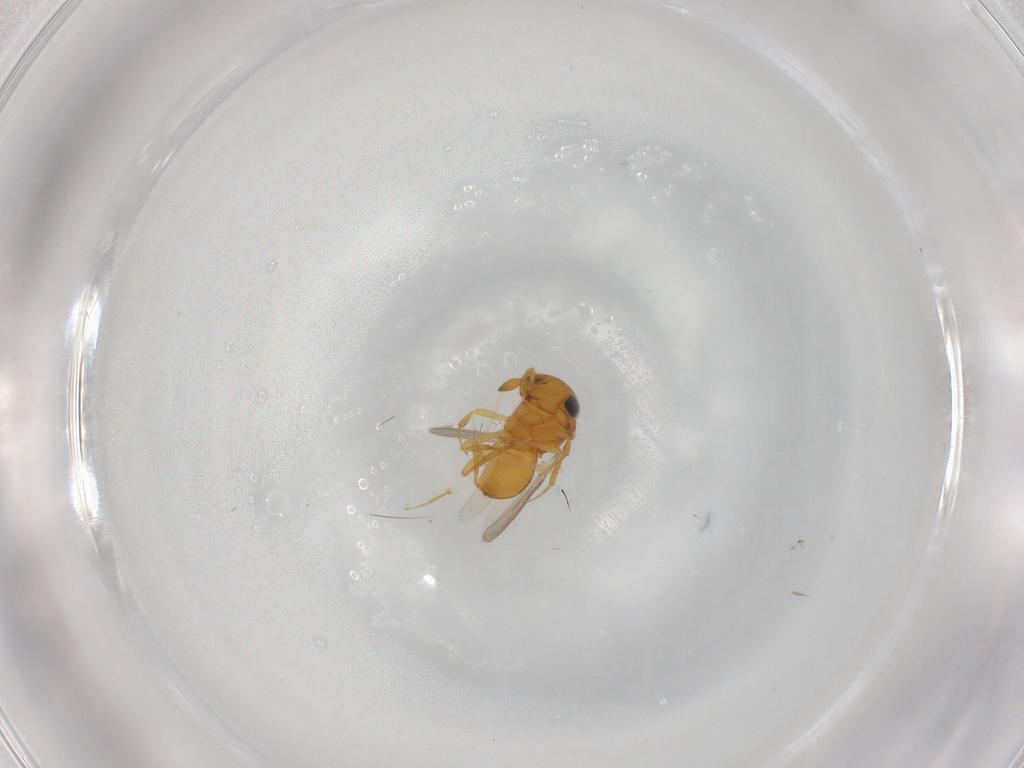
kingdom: Animalia
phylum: Arthropoda
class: Insecta
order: Hymenoptera
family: Scelionidae
